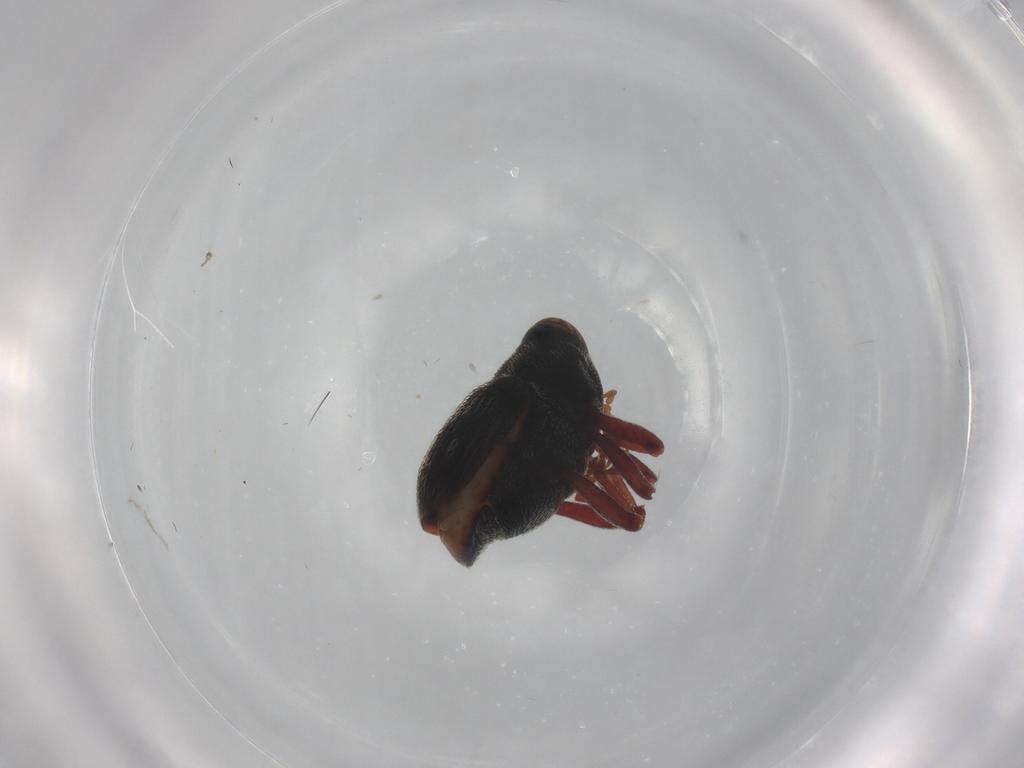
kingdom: Animalia
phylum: Arthropoda
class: Insecta
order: Coleoptera
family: Curculionidae
